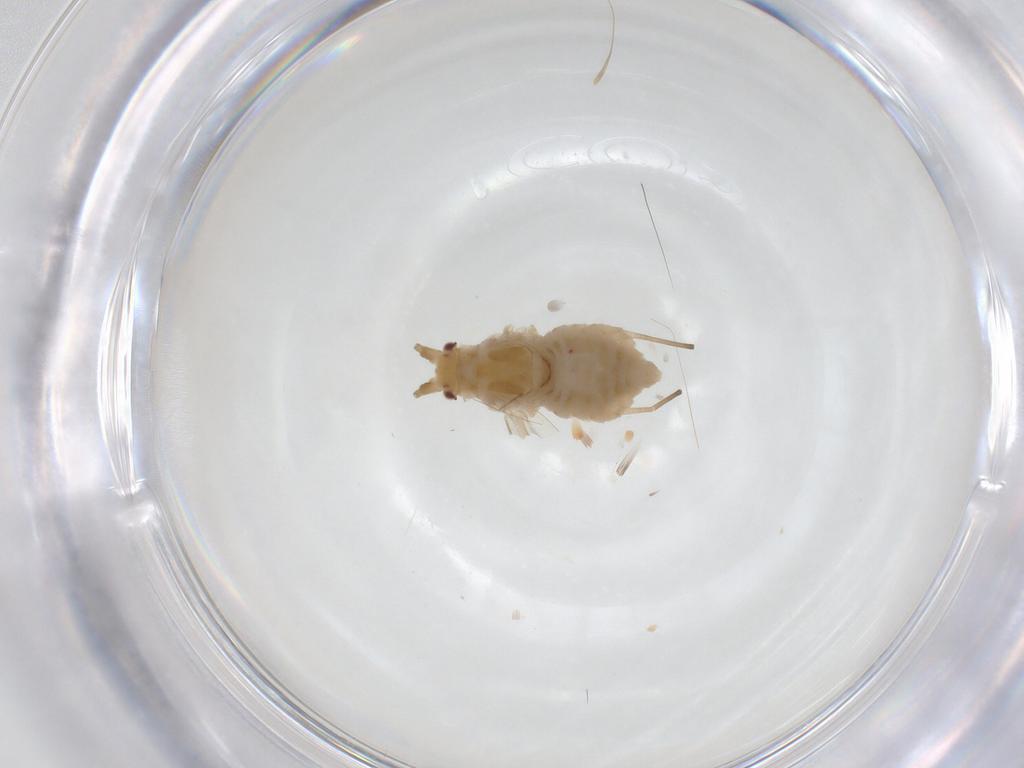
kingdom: Animalia
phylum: Arthropoda
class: Insecta
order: Hemiptera
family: Aphididae
